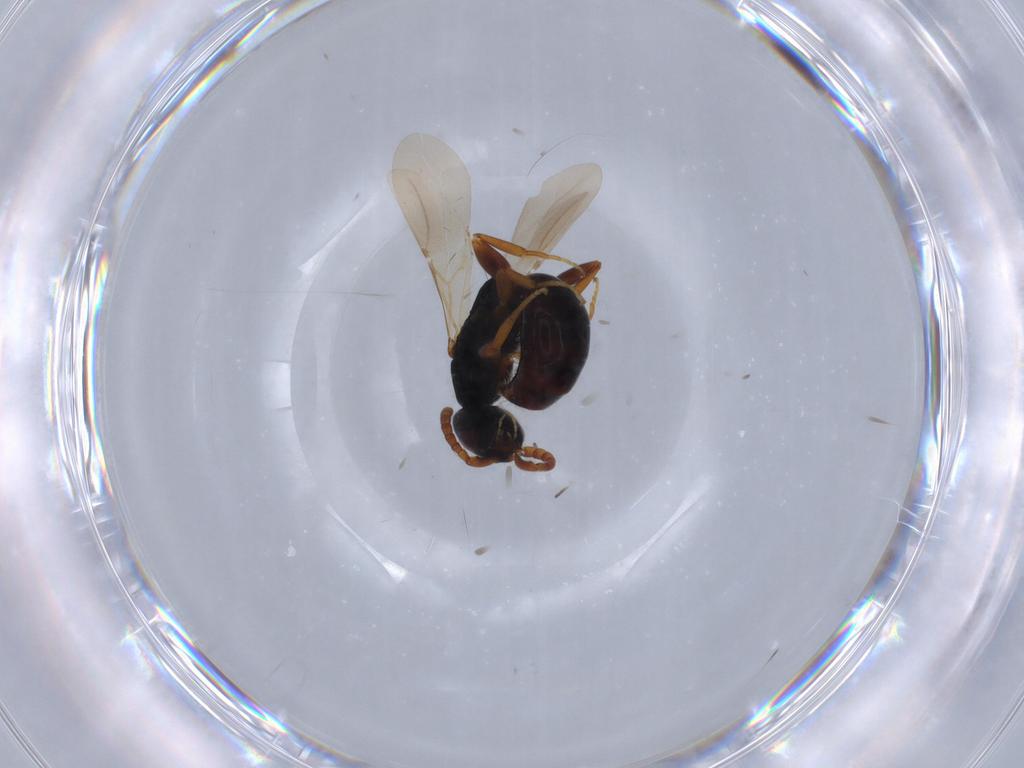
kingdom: Animalia
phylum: Arthropoda
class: Insecta
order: Hymenoptera
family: Bethylidae
